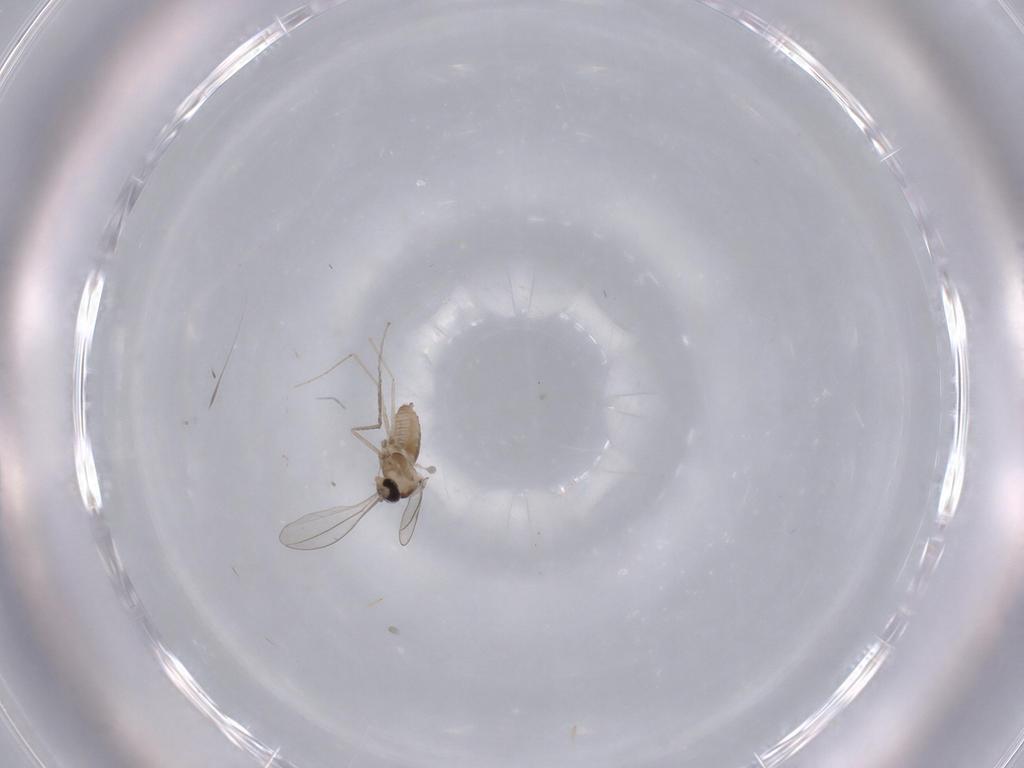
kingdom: Animalia
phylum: Arthropoda
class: Insecta
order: Diptera
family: Cecidomyiidae
